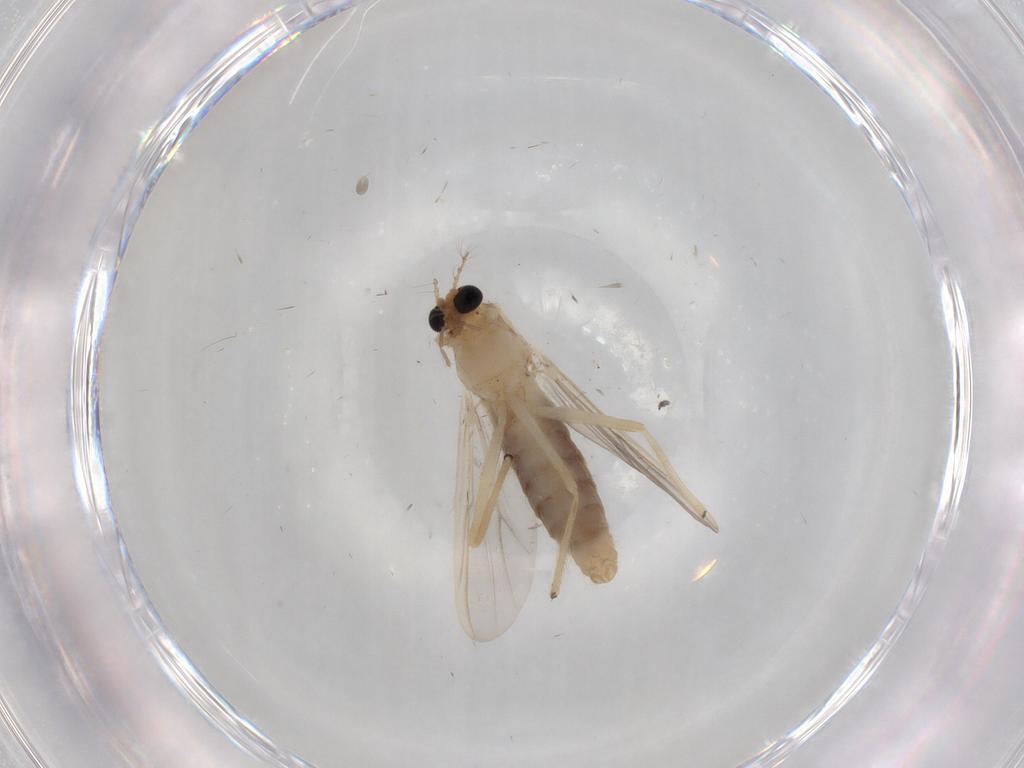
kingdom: Animalia
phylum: Arthropoda
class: Insecta
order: Diptera
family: Chironomidae
